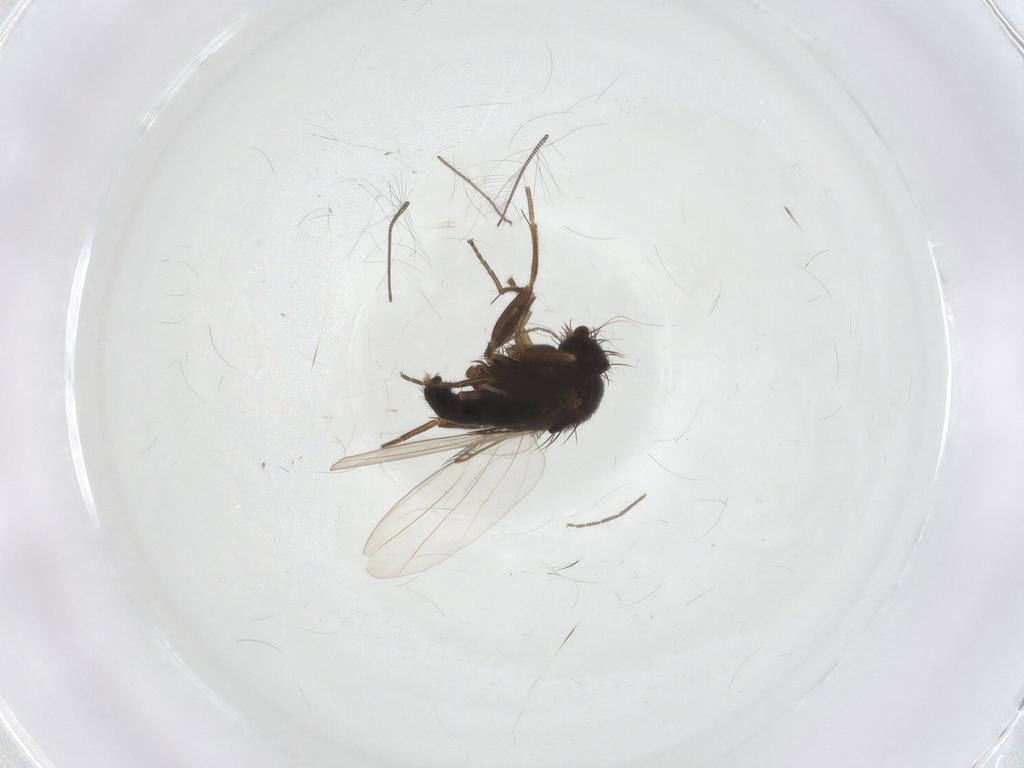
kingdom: Animalia
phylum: Arthropoda
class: Insecta
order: Diptera
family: Phoridae
